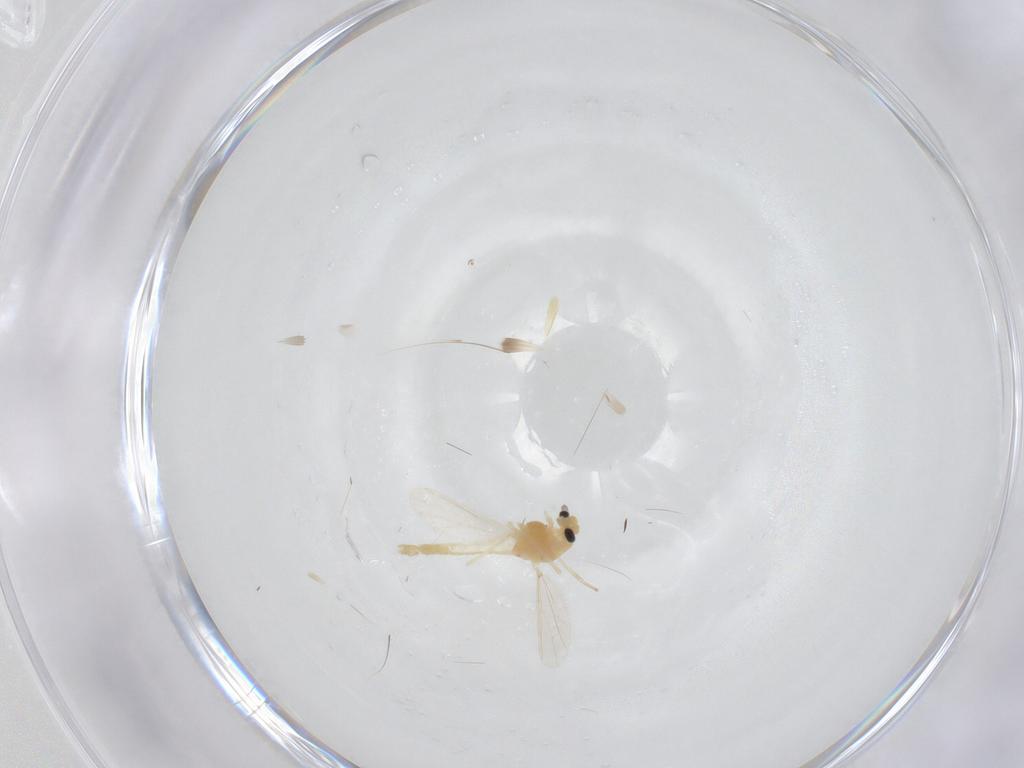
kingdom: Animalia
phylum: Arthropoda
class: Insecta
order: Diptera
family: Chironomidae
